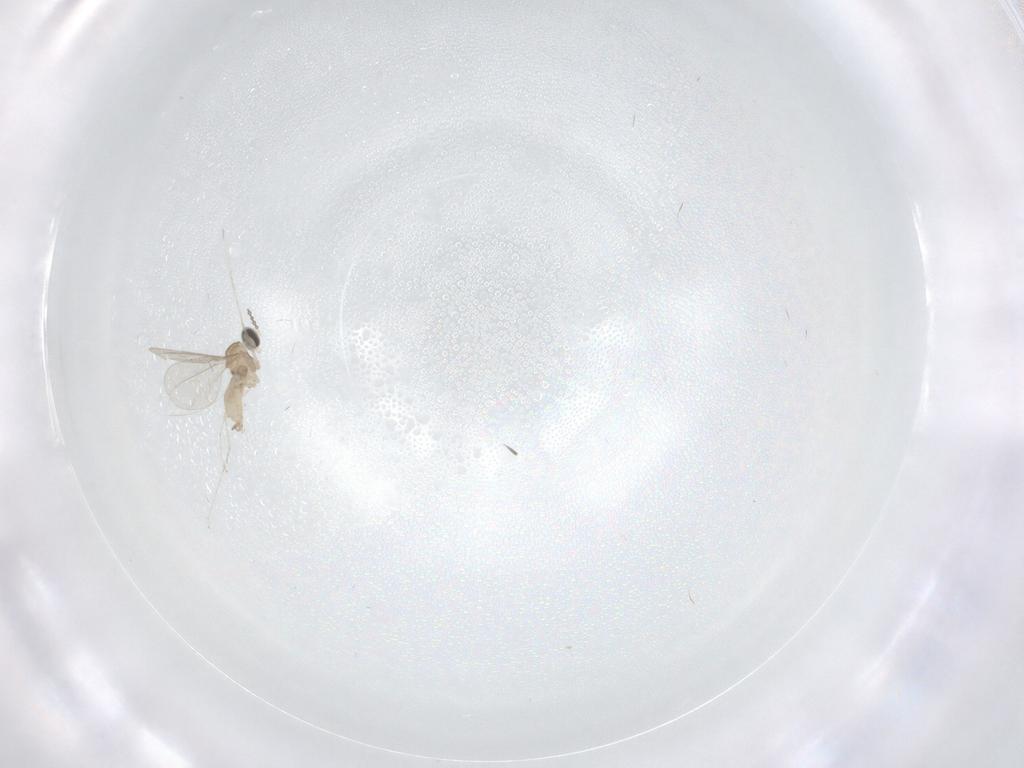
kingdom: Animalia
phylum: Arthropoda
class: Insecta
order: Diptera
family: Cecidomyiidae
